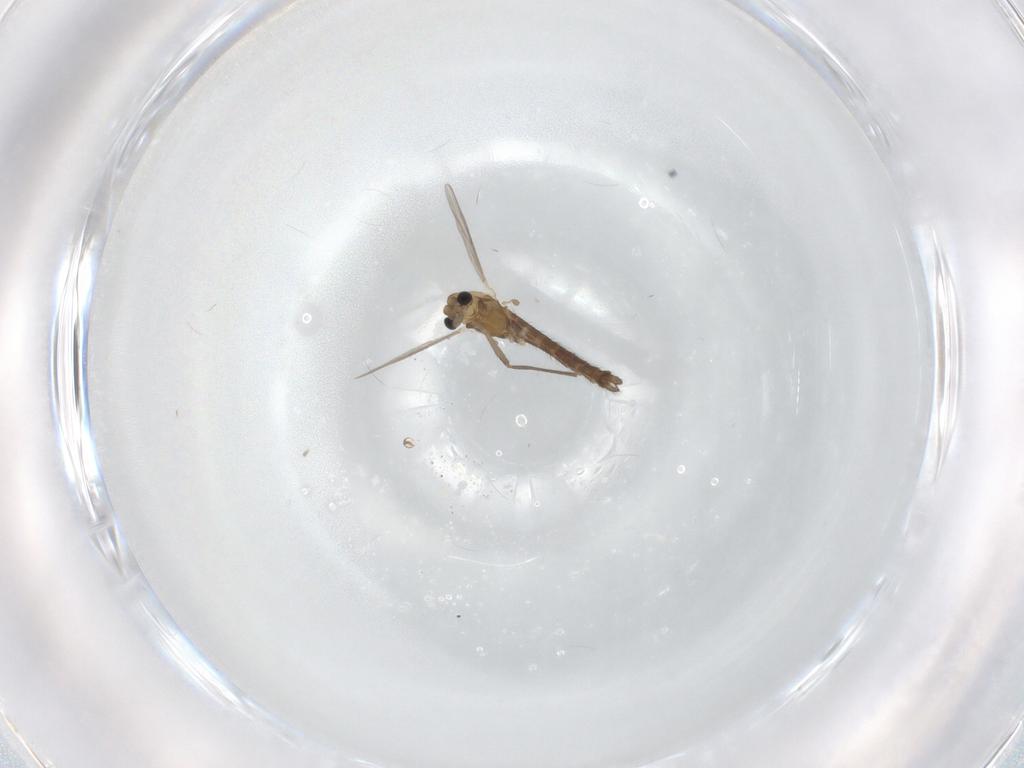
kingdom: Animalia
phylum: Arthropoda
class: Insecta
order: Diptera
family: Chironomidae
